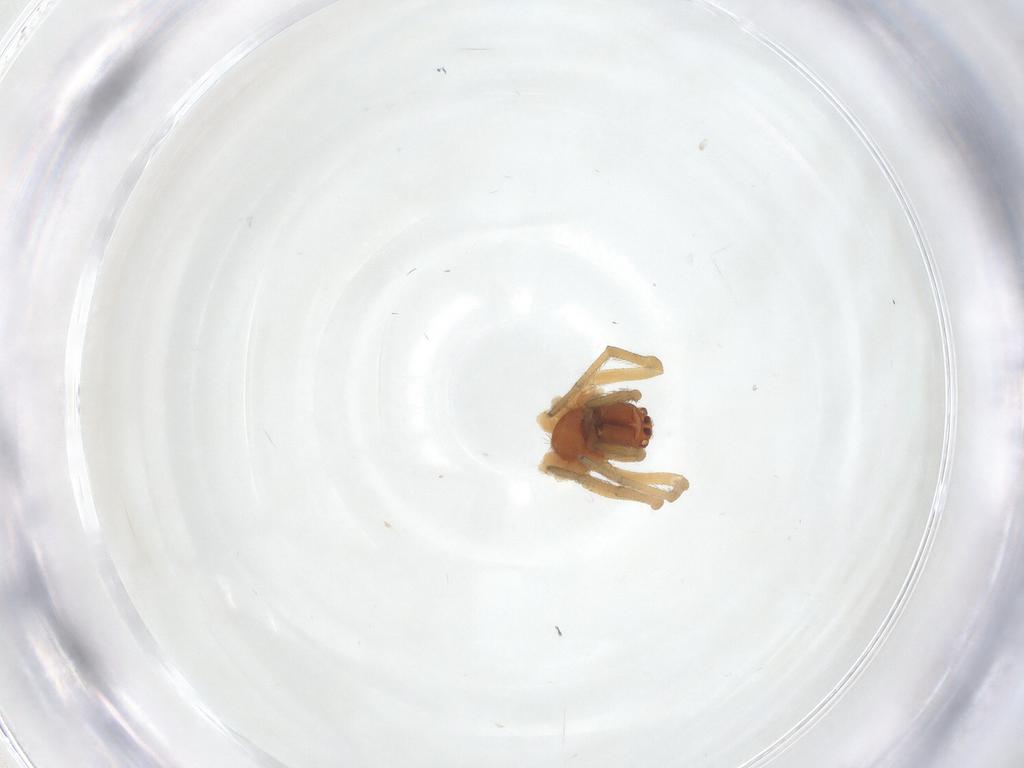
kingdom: Animalia
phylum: Arthropoda
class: Arachnida
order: Araneae
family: Dictynidae
